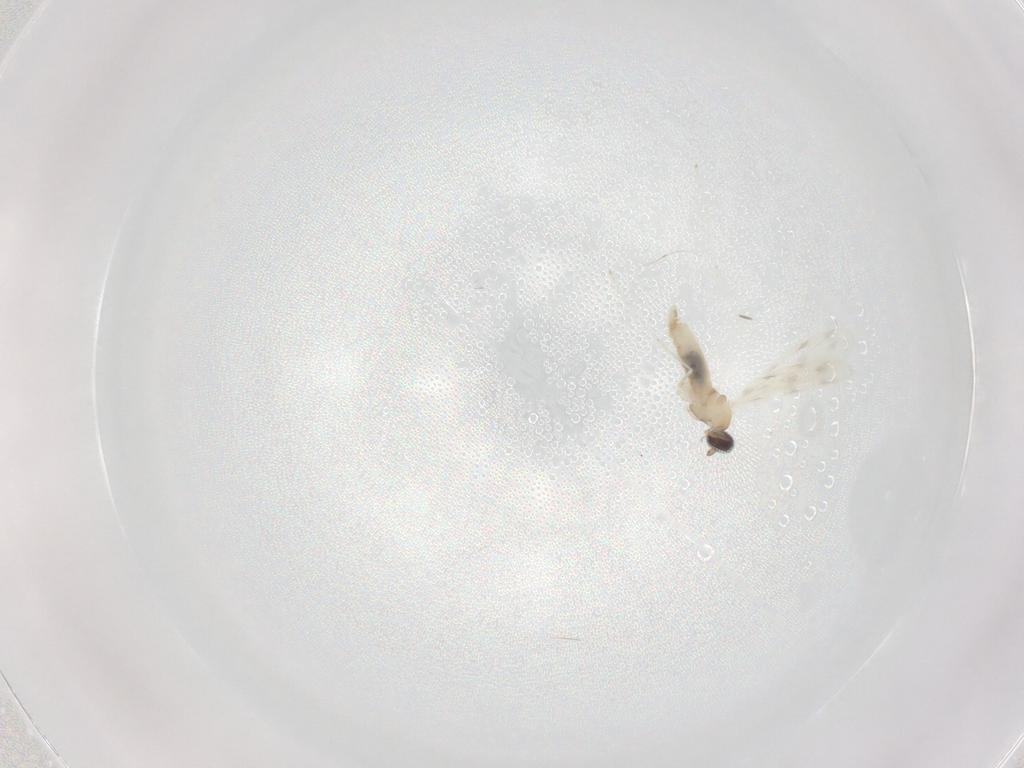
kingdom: Animalia
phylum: Arthropoda
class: Insecta
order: Diptera
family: Cecidomyiidae
